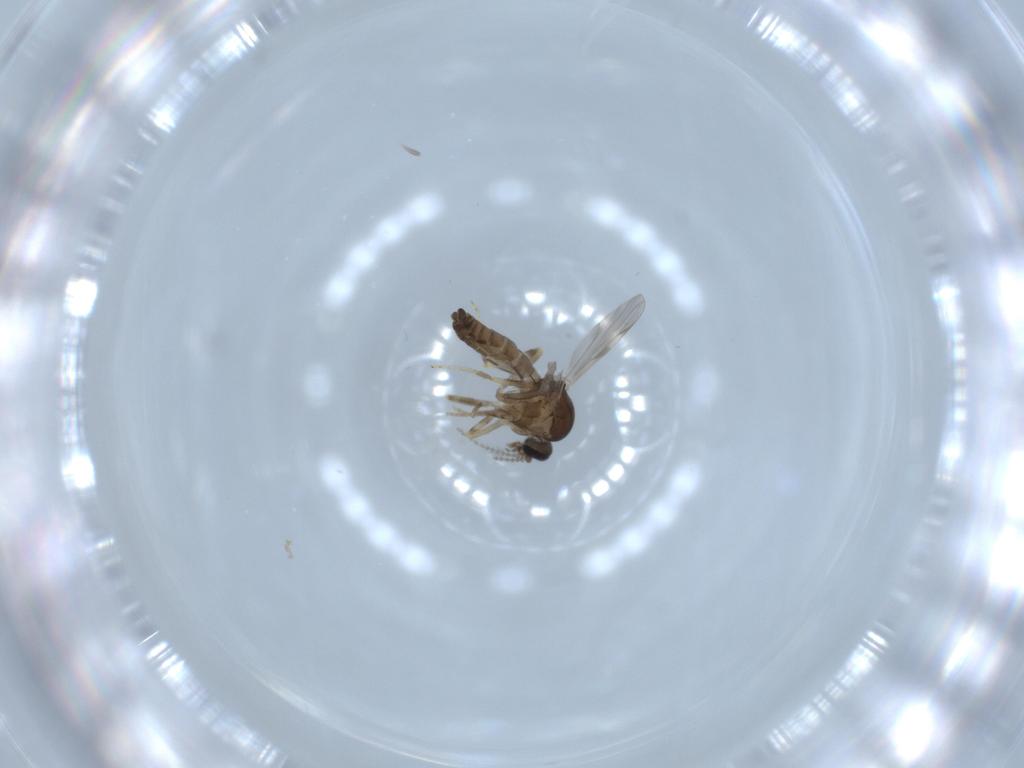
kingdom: Animalia
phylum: Arthropoda
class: Insecta
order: Diptera
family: Ceratopogonidae
